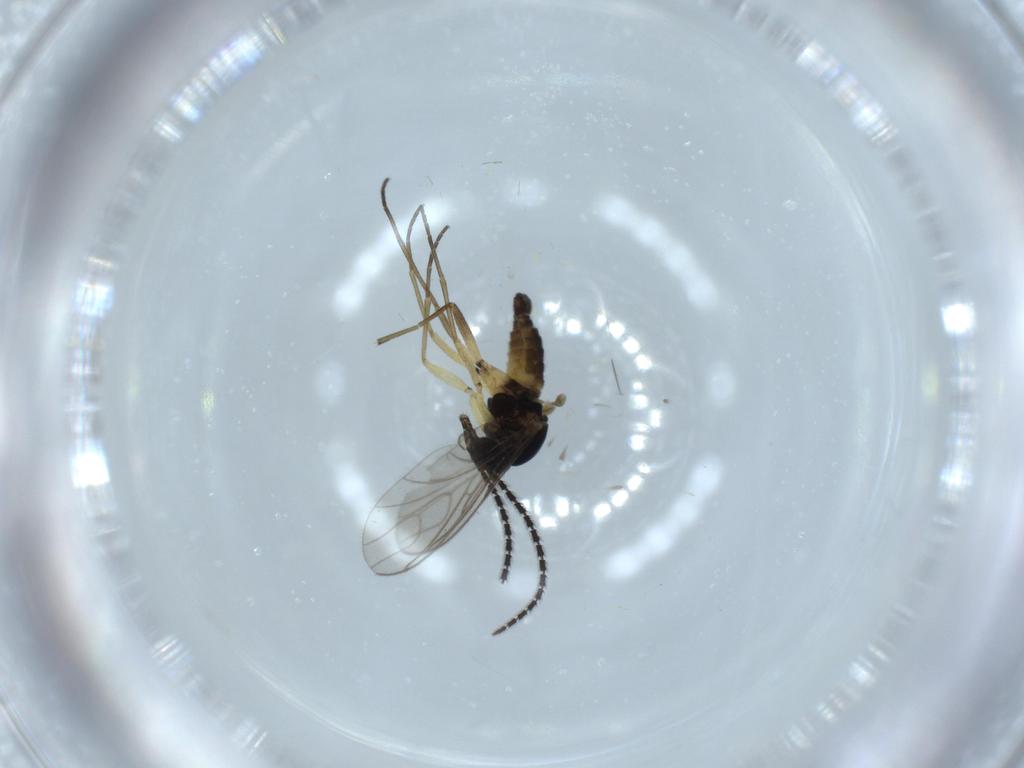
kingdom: Animalia
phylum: Arthropoda
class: Insecta
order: Diptera
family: Sciaridae
